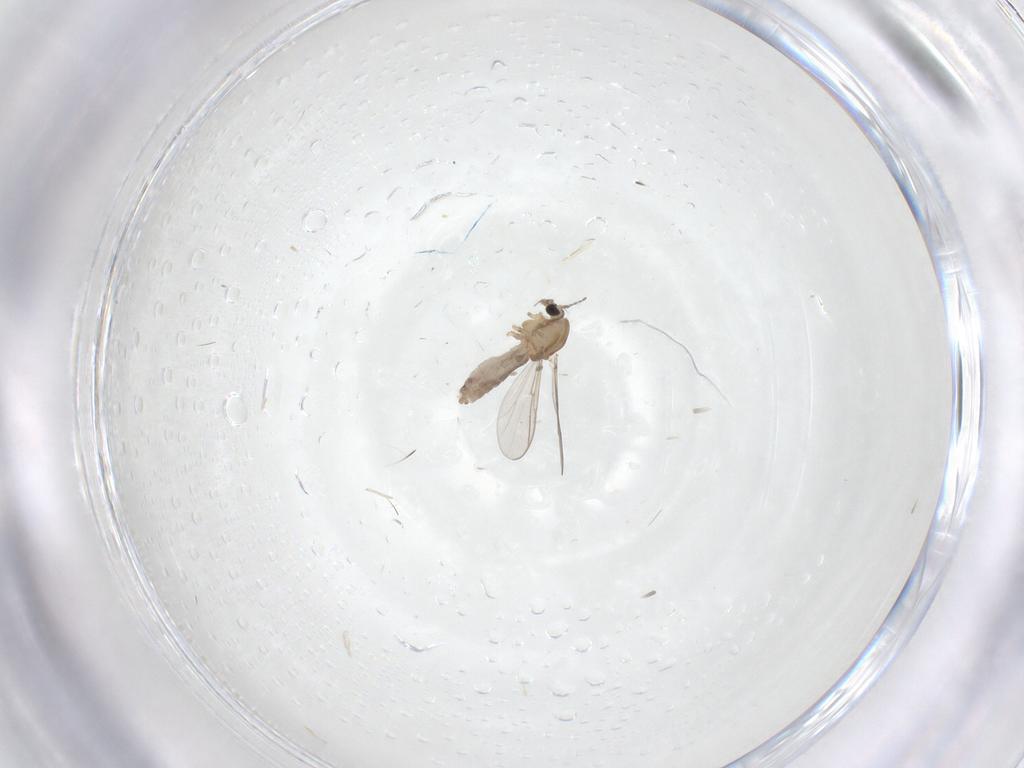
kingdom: Animalia
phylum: Arthropoda
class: Insecta
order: Diptera
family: Chironomidae
